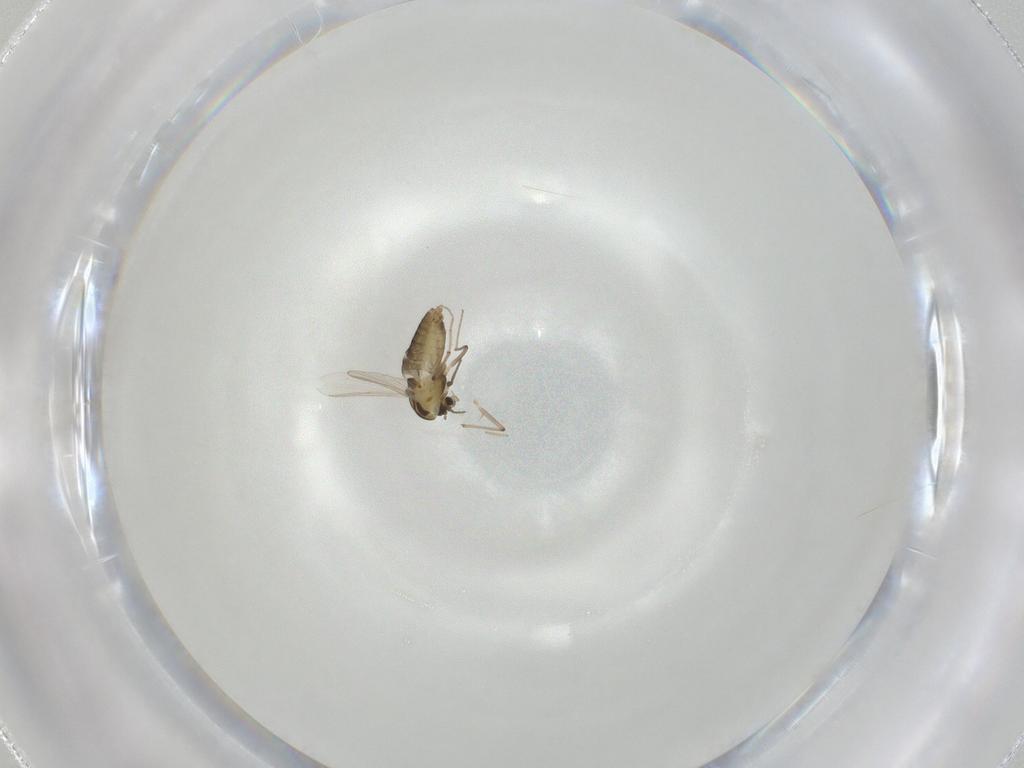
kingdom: Animalia
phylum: Arthropoda
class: Insecta
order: Diptera
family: Chironomidae
